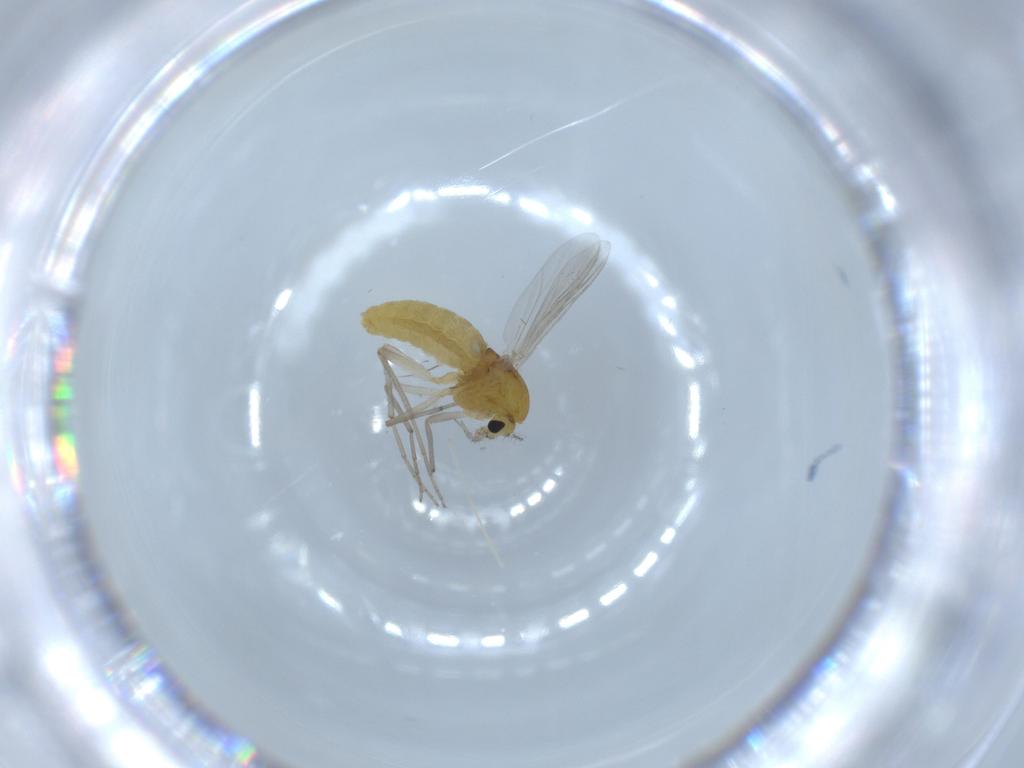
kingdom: Animalia
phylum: Arthropoda
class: Insecta
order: Diptera
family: Chironomidae
